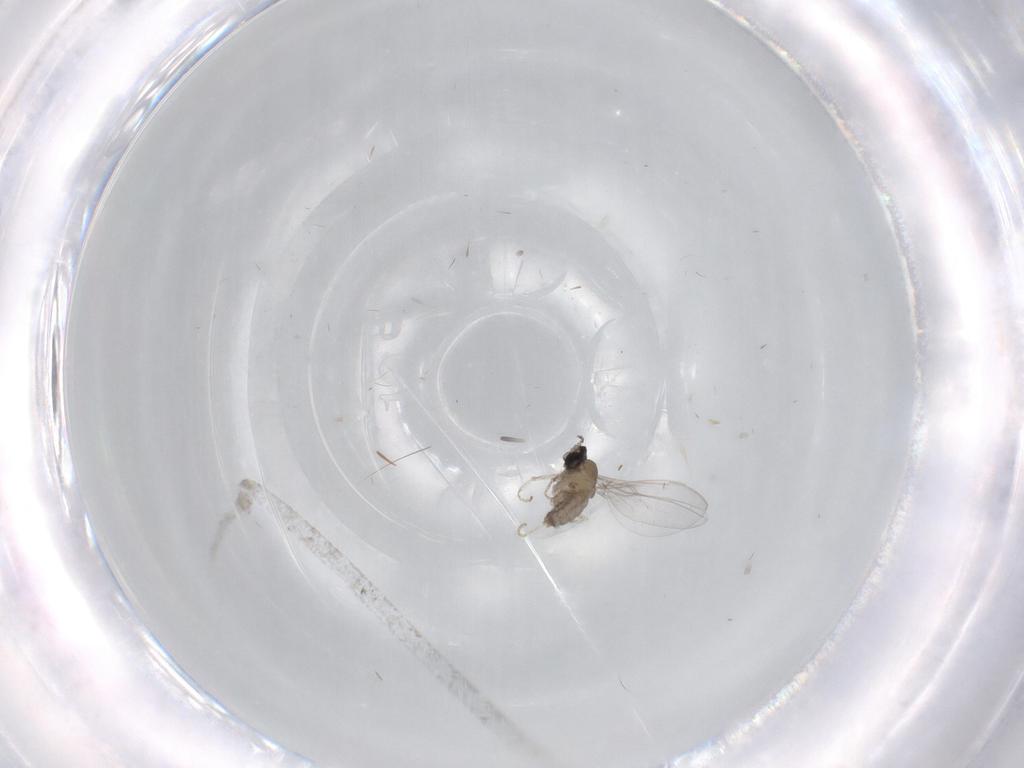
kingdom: Animalia
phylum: Arthropoda
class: Insecta
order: Diptera
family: Cecidomyiidae
